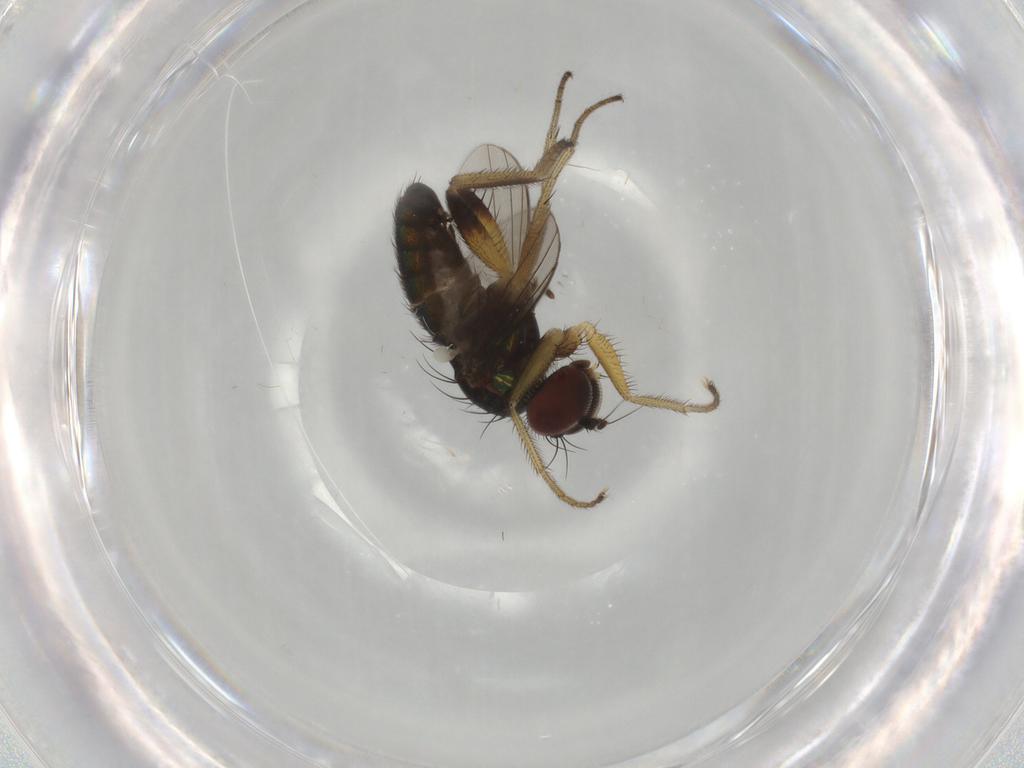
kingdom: Animalia
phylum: Arthropoda
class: Insecta
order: Diptera
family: Dolichopodidae
